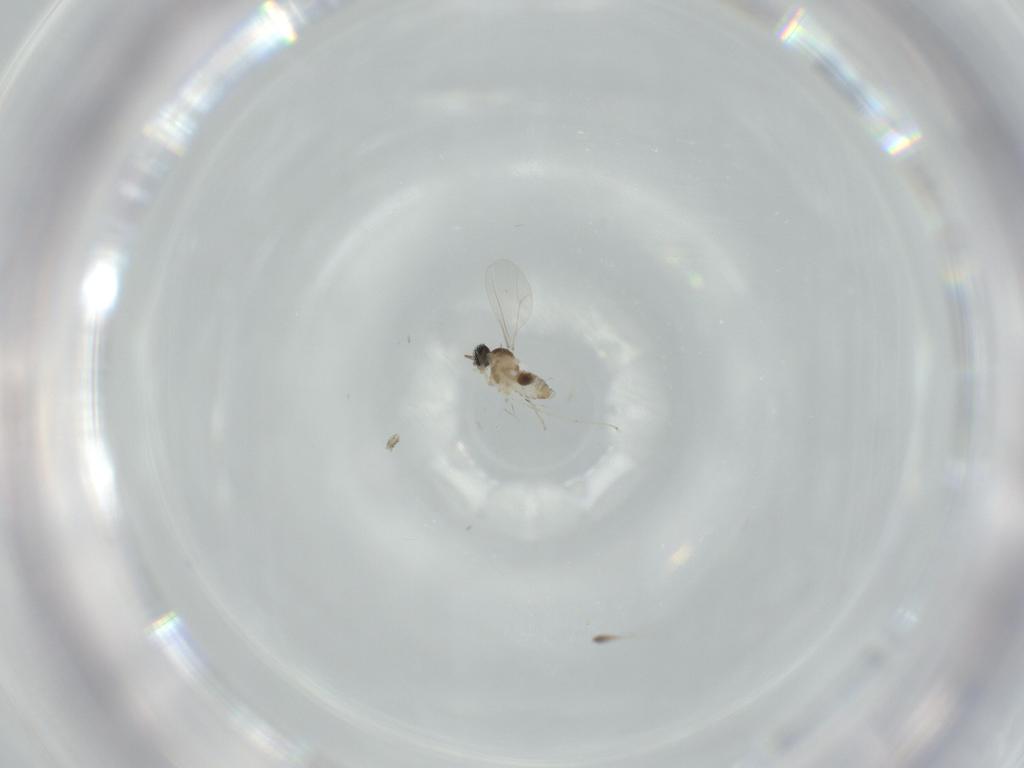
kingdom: Animalia
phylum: Arthropoda
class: Insecta
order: Diptera
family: Cecidomyiidae
